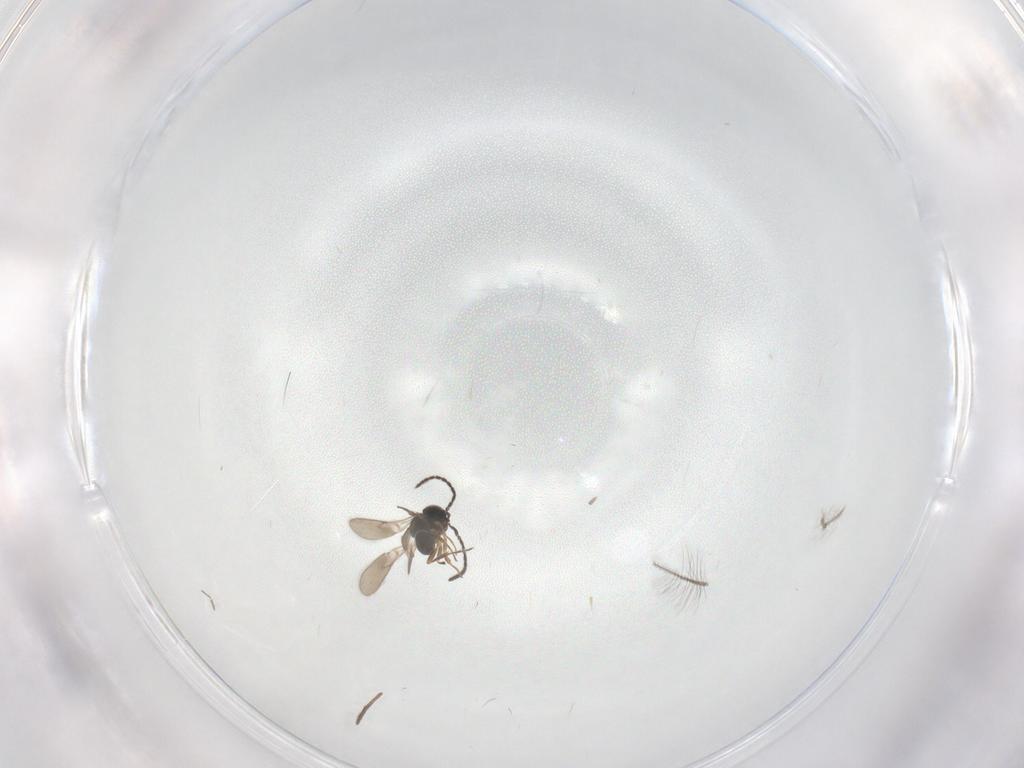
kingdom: Animalia
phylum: Arthropoda
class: Insecta
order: Hymenoptera
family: Scelionidae
